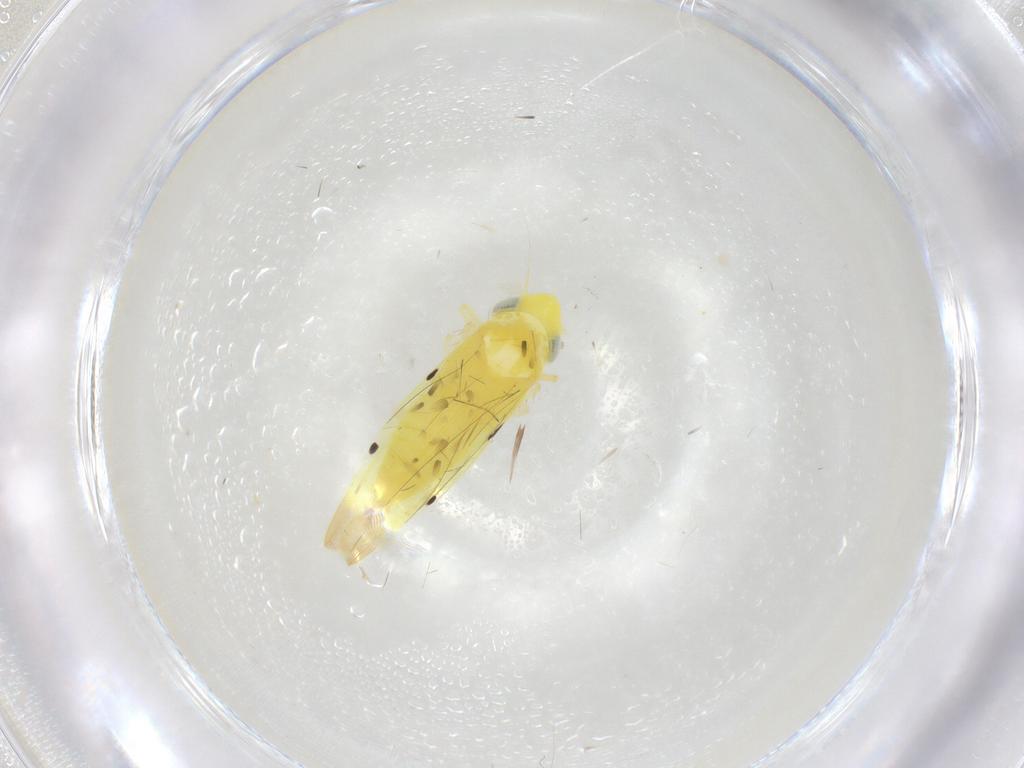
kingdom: Animalia
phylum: Arthropoda
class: Insecta
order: Hemiptera
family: Cicadellidae
